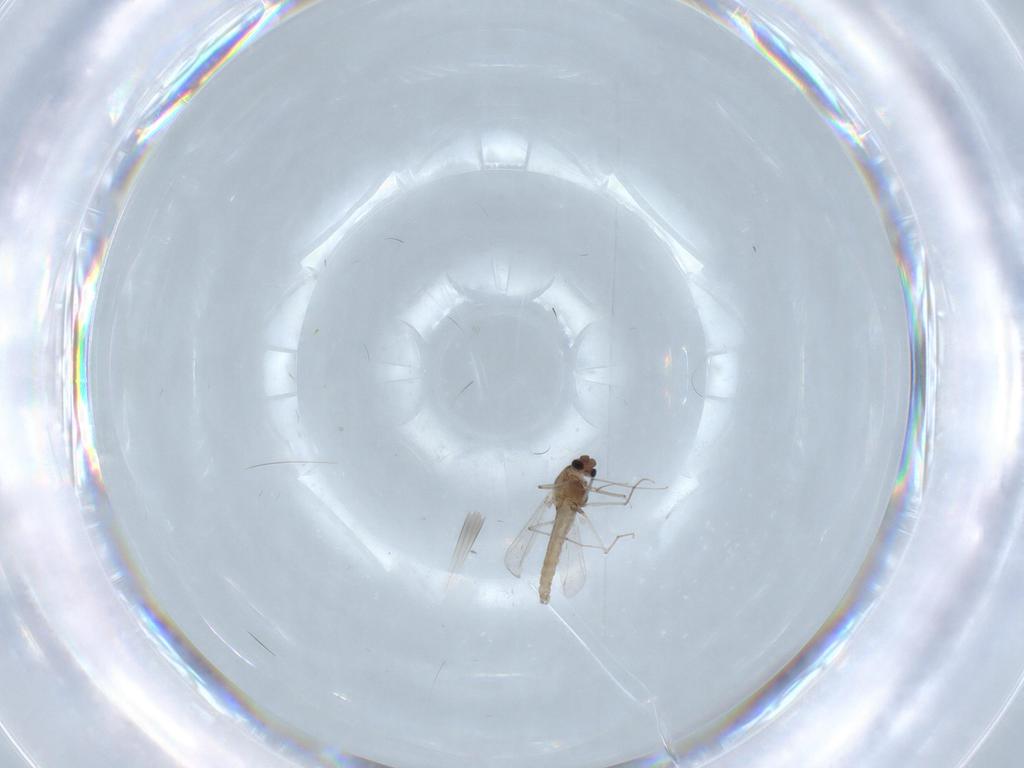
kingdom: Animalia
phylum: Arthropoda
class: Insecta
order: Diptera
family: Chironomidae
